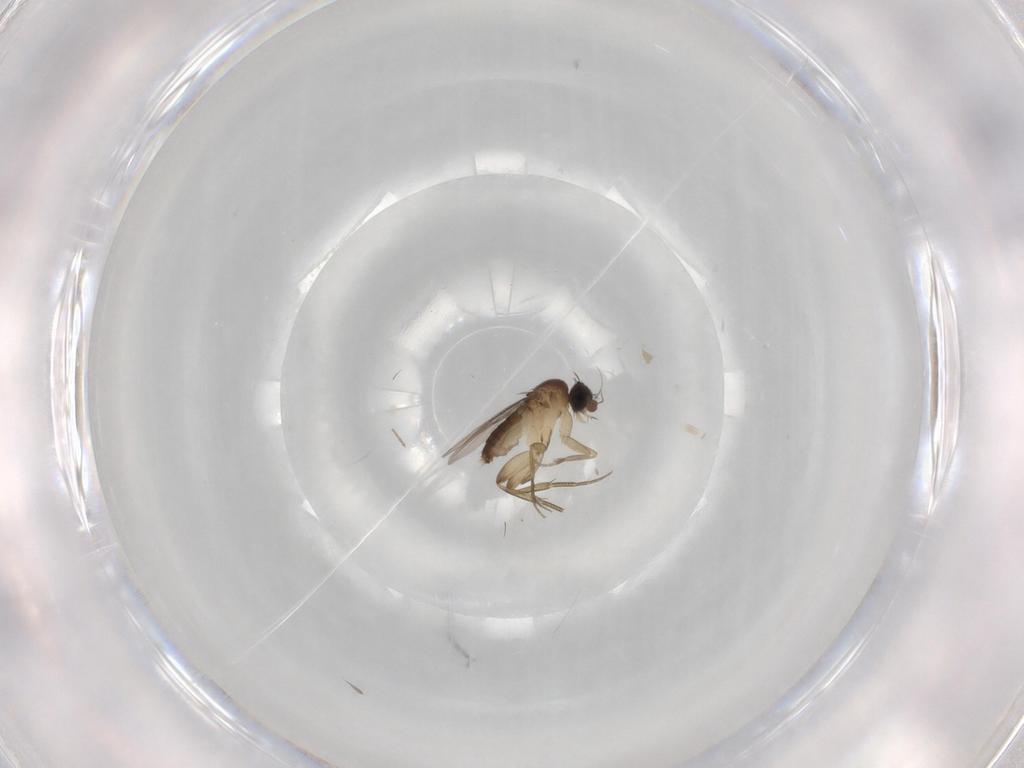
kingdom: Animalia
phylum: Arthropoda
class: Insecta
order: Diptera
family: Phoridae
